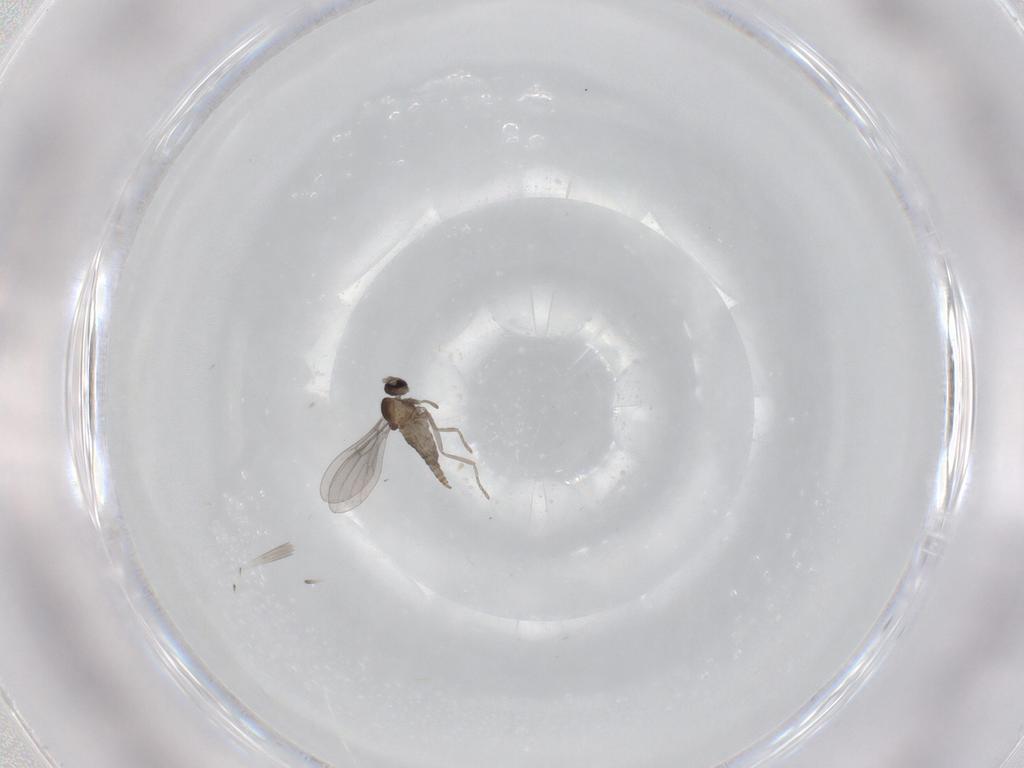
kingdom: Animalia
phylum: Arthropoda
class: Insecta
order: Diptera
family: Cecidomyiidae
